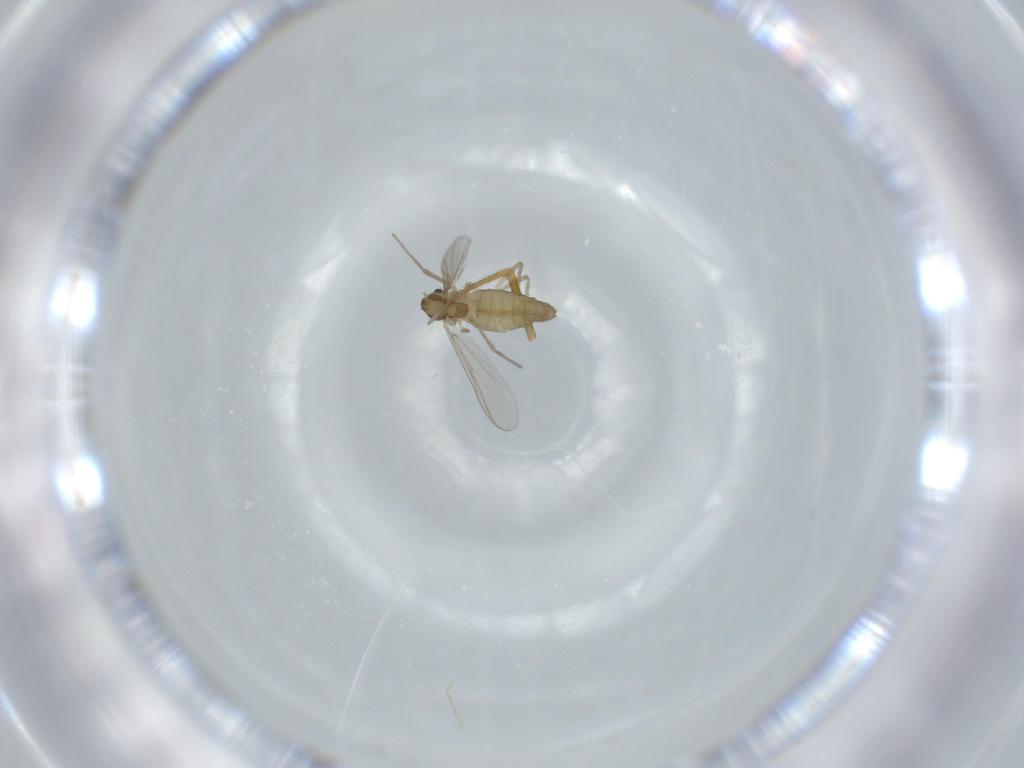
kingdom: Animalia
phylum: Arthropoda
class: Insecta
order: Diptera
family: Chironomidae
